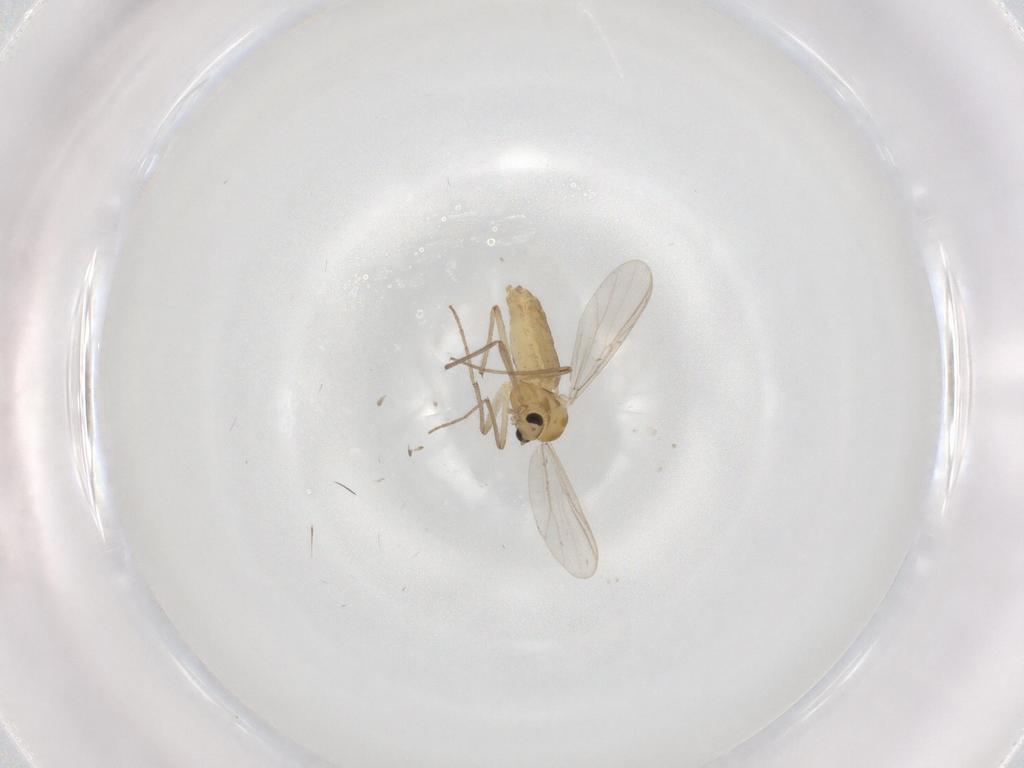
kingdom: Animalia
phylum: Arthropoda
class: Insecta
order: Diptera
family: Chironomidae
